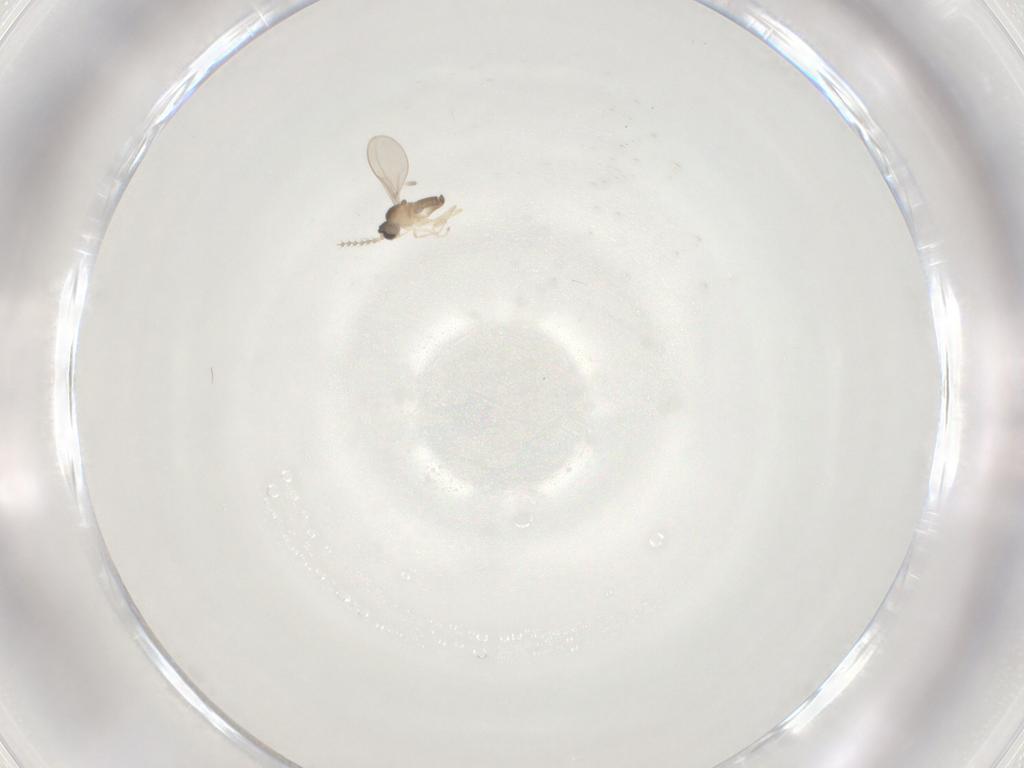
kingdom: Animalia
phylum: Arthropoda
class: Insecta
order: Diptera
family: Cecidomyiidae
